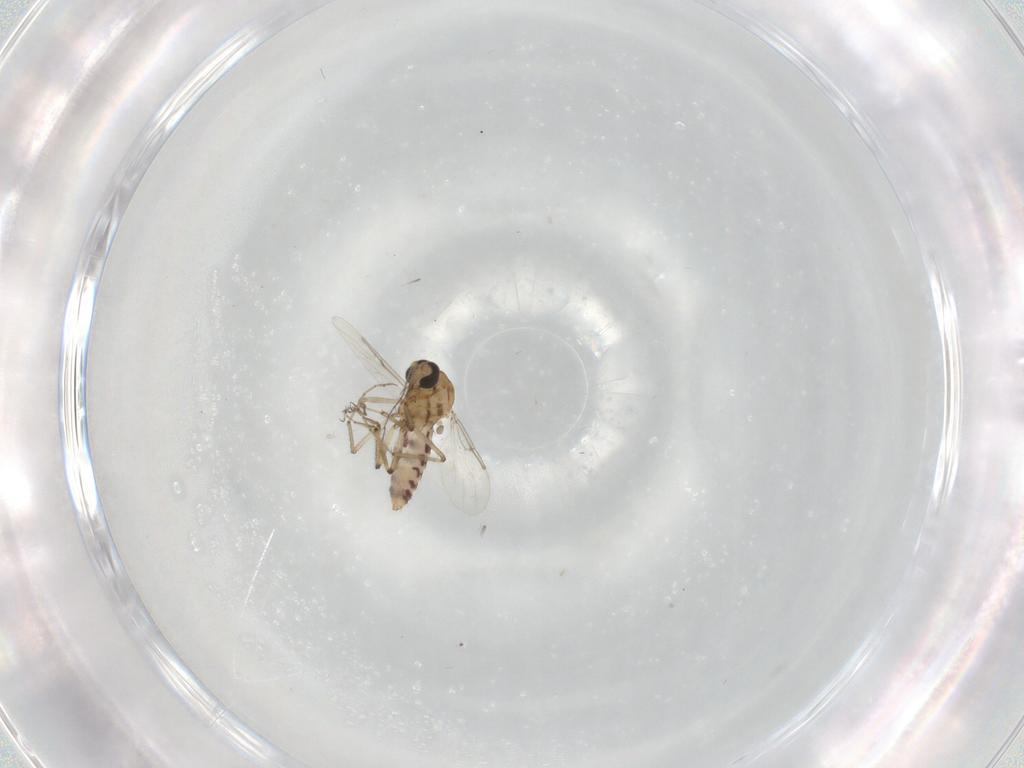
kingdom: Animalia
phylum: Arthropoda
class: Insecta
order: Diptera
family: Ceratopogonidae
